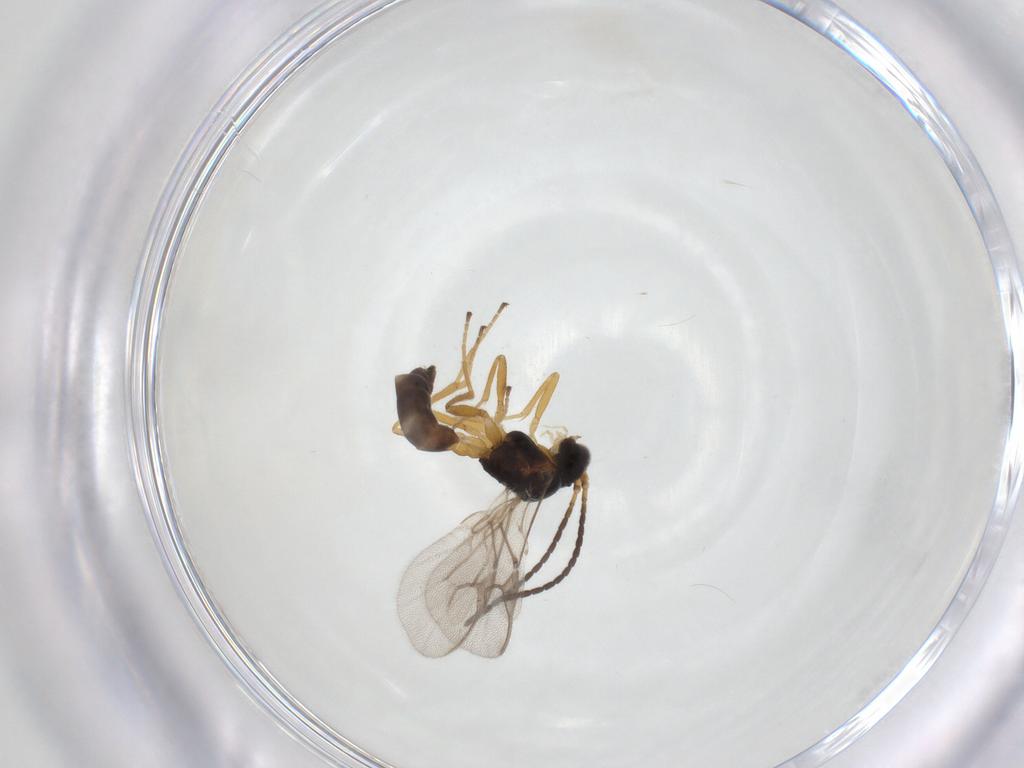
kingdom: Animalia
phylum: Arthropoda
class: Insecta
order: Hymenoptera
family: Braconidae
